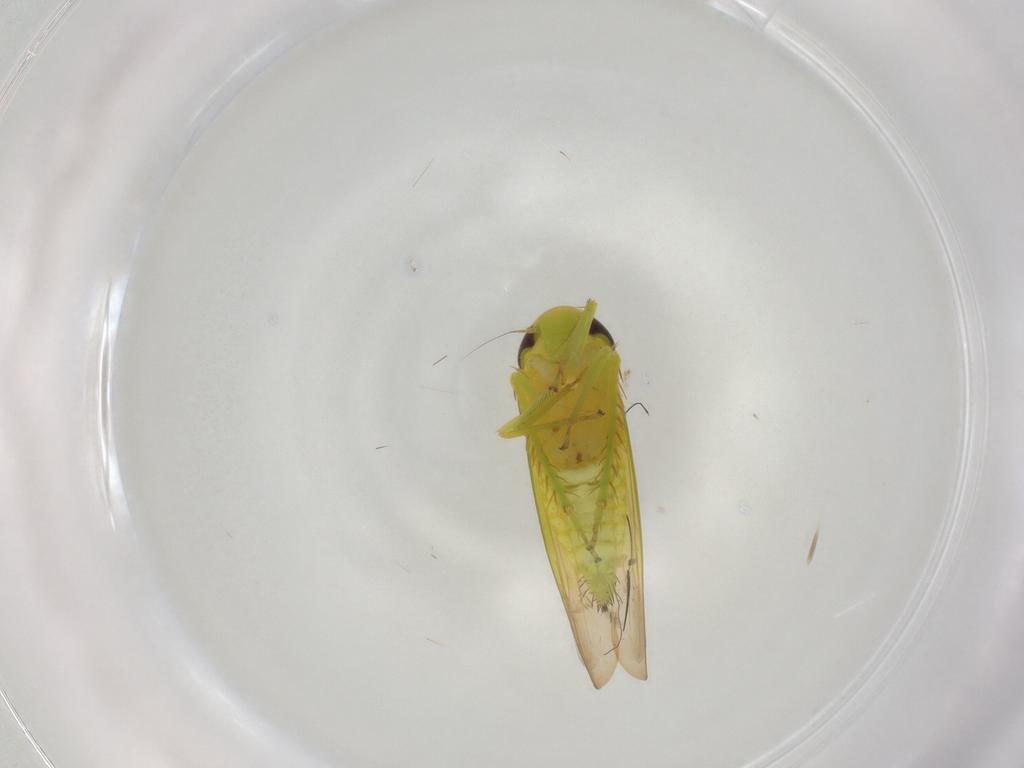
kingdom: Animalia
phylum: Arthropoda
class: Insecta
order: Hemiptera
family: Cicadellidae
